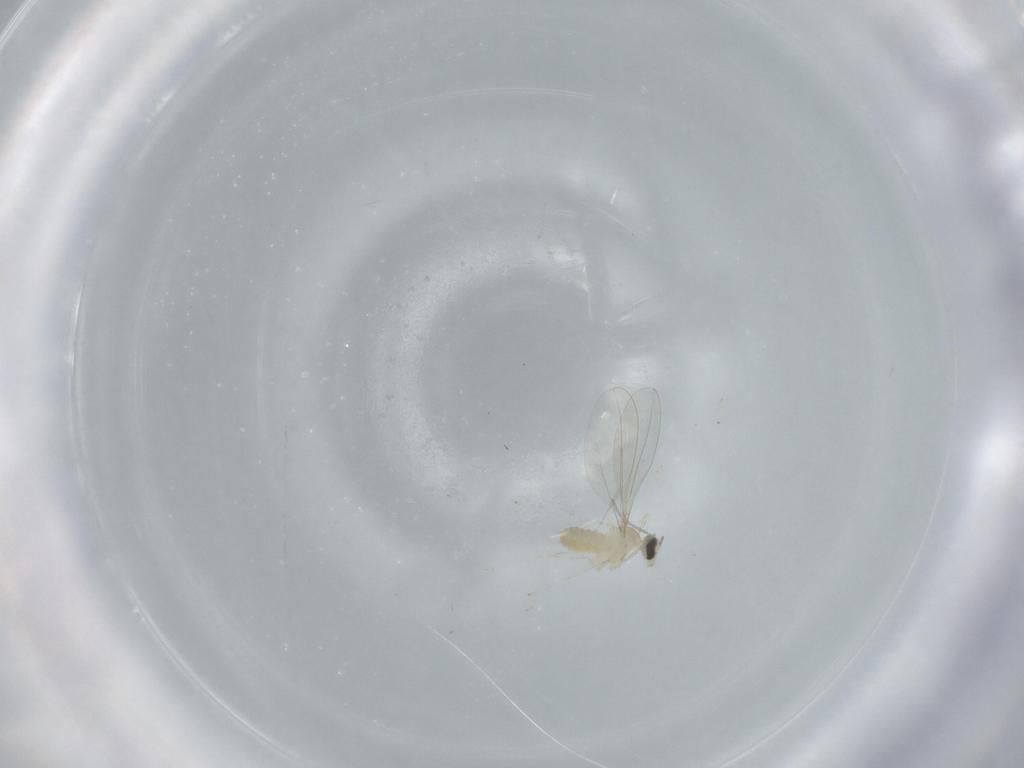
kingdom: Animalia
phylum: Arthropoda
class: Insecta
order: Diptera
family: Cecidomyiidae
